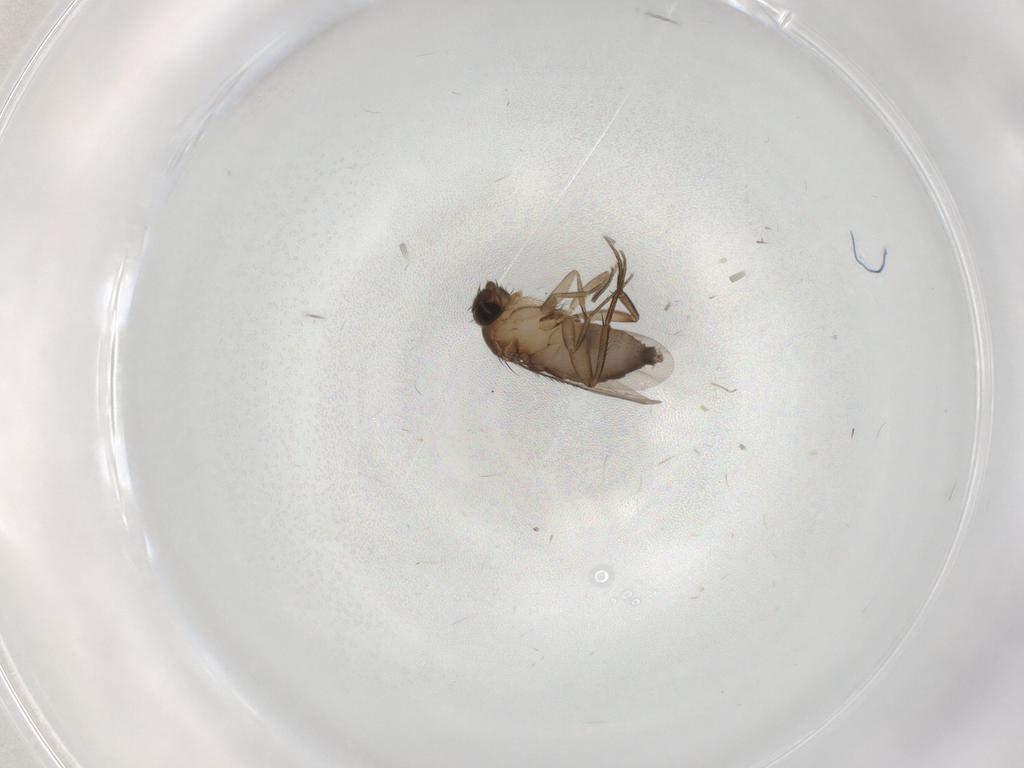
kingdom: Animalia
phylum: Arthropoda
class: Insecta
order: Diptera
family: Phoridae
